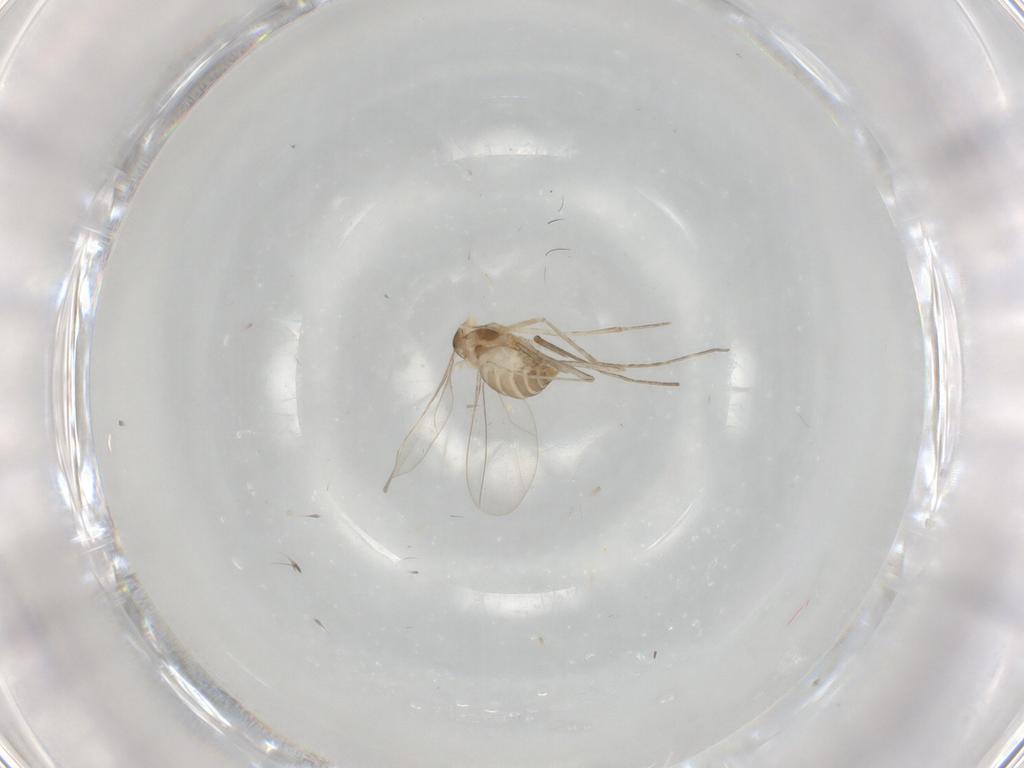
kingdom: Animalia
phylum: Arthropoda
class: Insecta
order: Diptera
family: Cecidomyiidae
